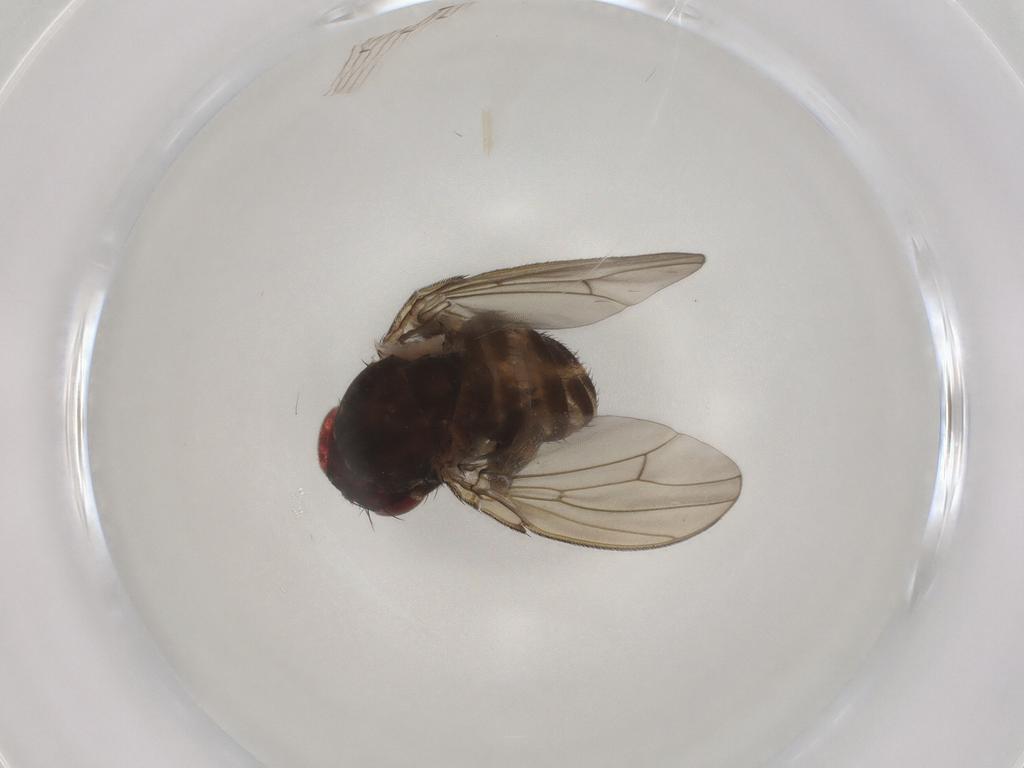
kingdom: Animalia
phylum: Arthropoda
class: Insecta
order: Diptera
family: Drosophilidae
